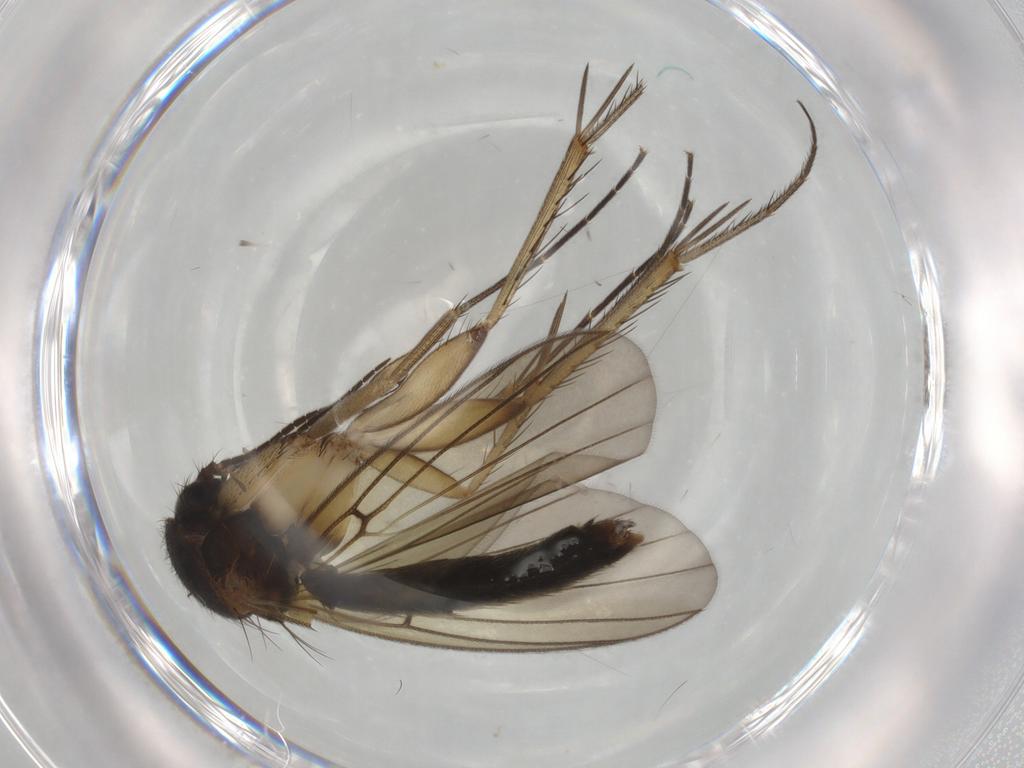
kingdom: Animalia
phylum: Arthropoda
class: Insecta
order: Diptera
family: Mycetophilidae
